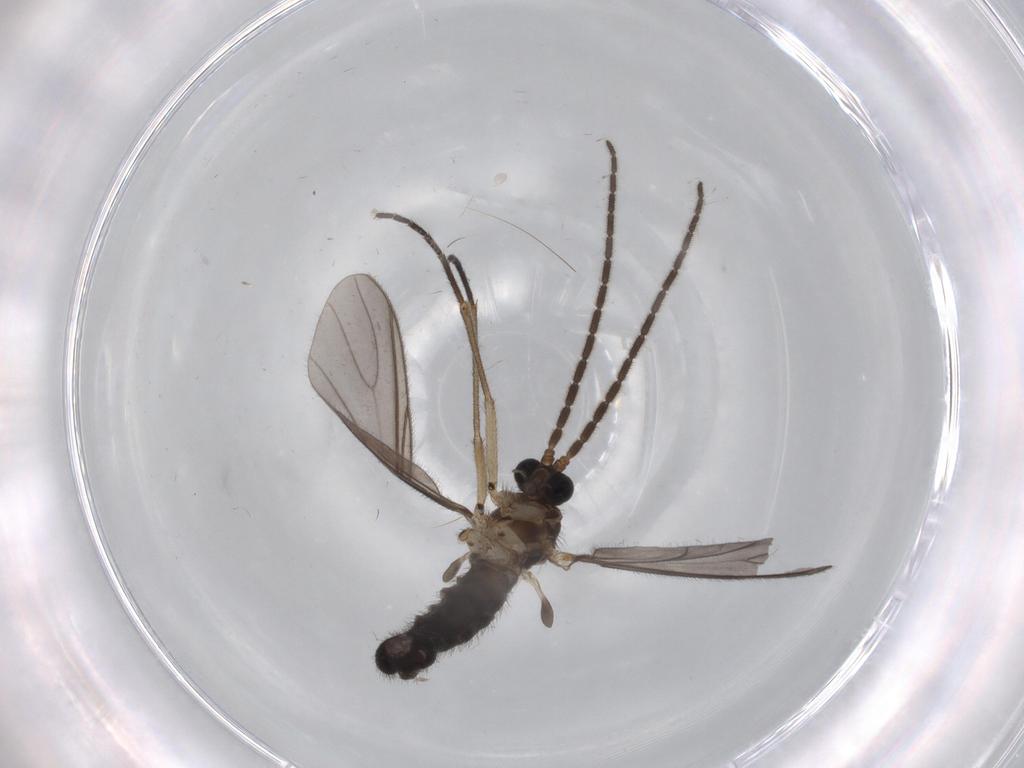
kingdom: Animalia
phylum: Arthropoda
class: Insecta
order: Diptera
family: Sciaridae
